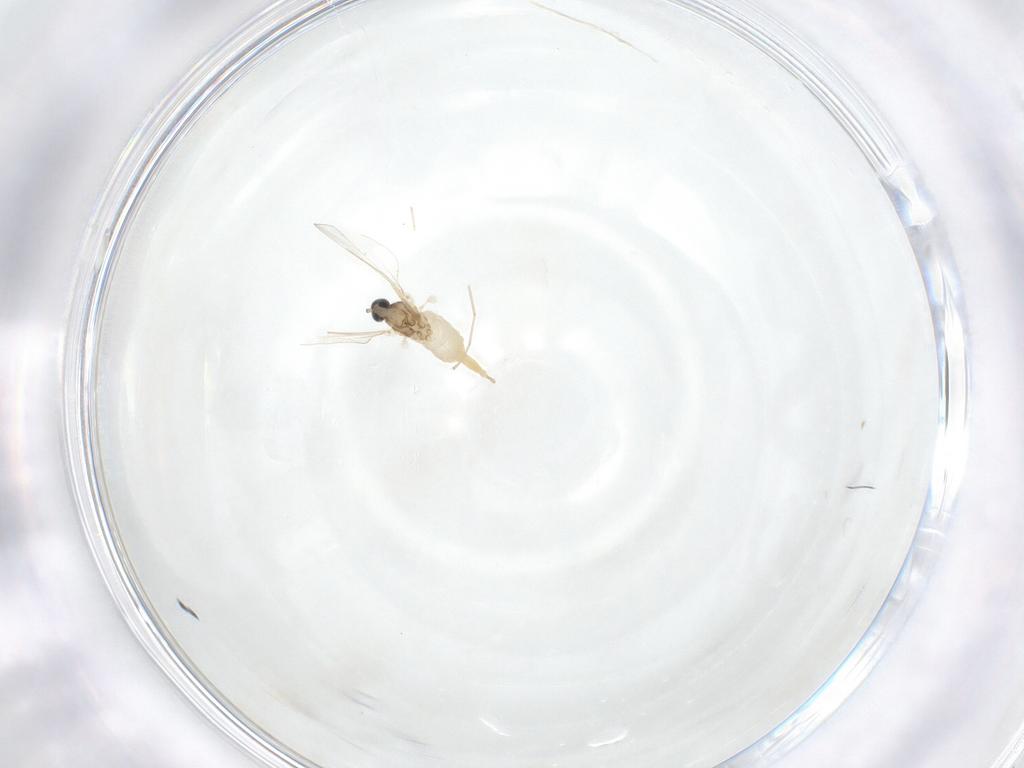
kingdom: Animalia
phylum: Arthropoda
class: Insecta
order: Diptera
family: Cecidomyiidae
